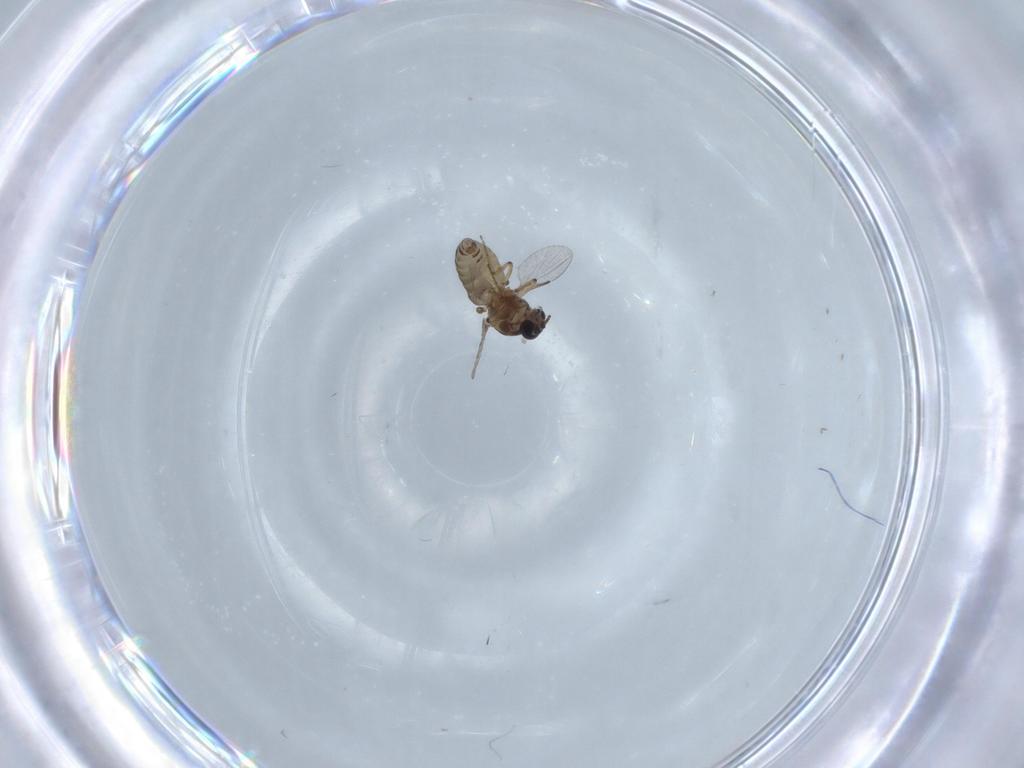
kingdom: Animalia
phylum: Arthropoda
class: Insecta
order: Diptera
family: Ceratopogonidae
